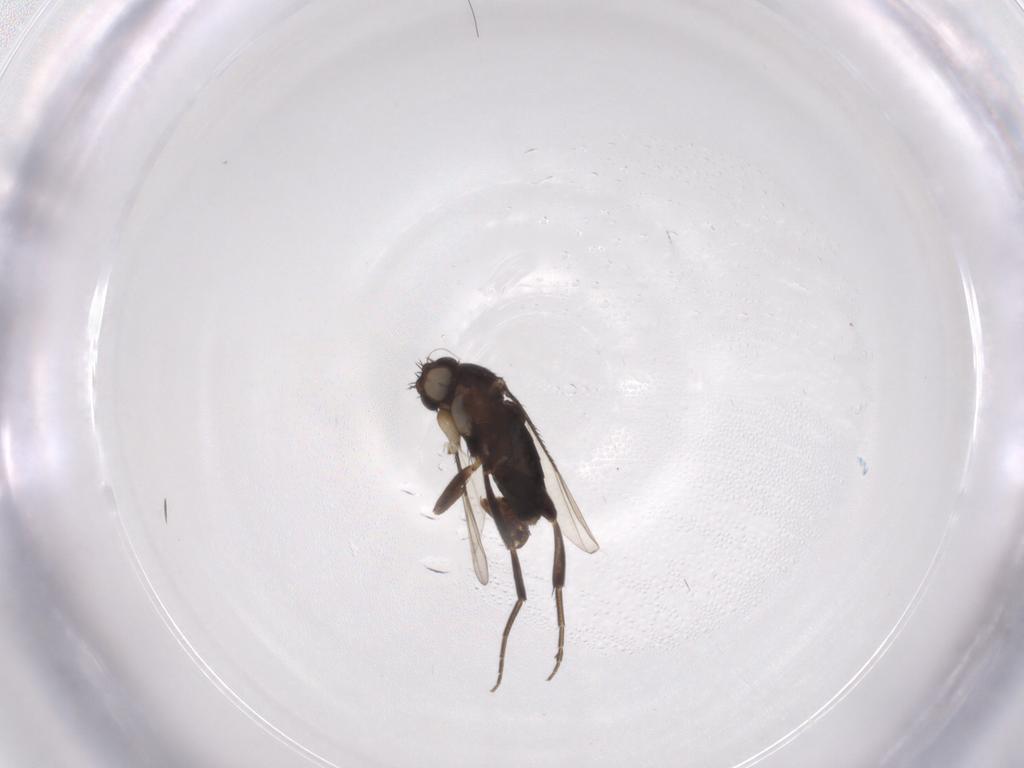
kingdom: Animalia
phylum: Arthropoda
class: Insecta
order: Diptera
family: Phoridae
